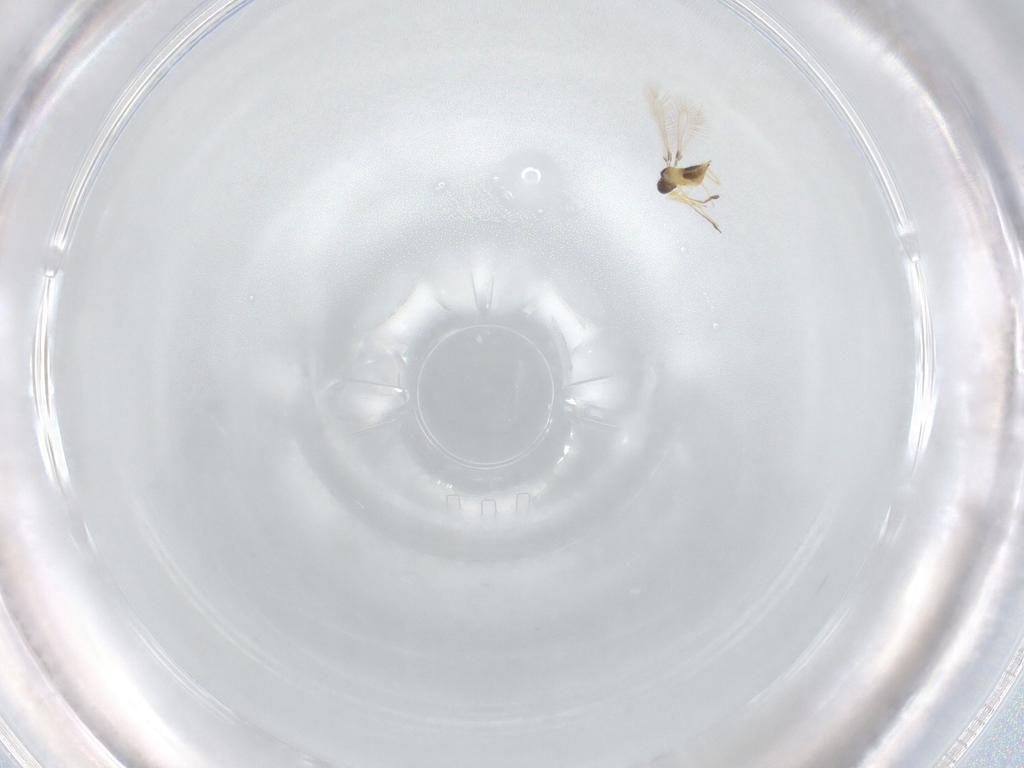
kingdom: Animalia
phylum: Arthropoda
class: Insecta
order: Hymenoptera
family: Mymaridae
